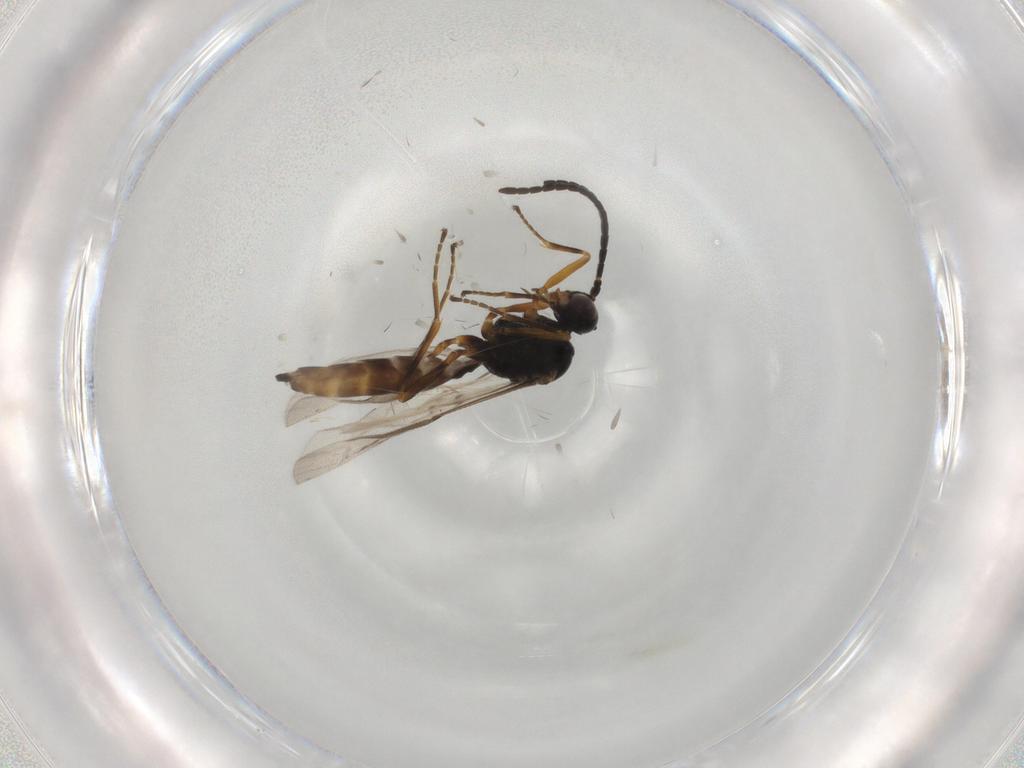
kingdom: Animalia
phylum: Arthropoda
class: Insecta
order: Hymenoptera
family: Braconidae
